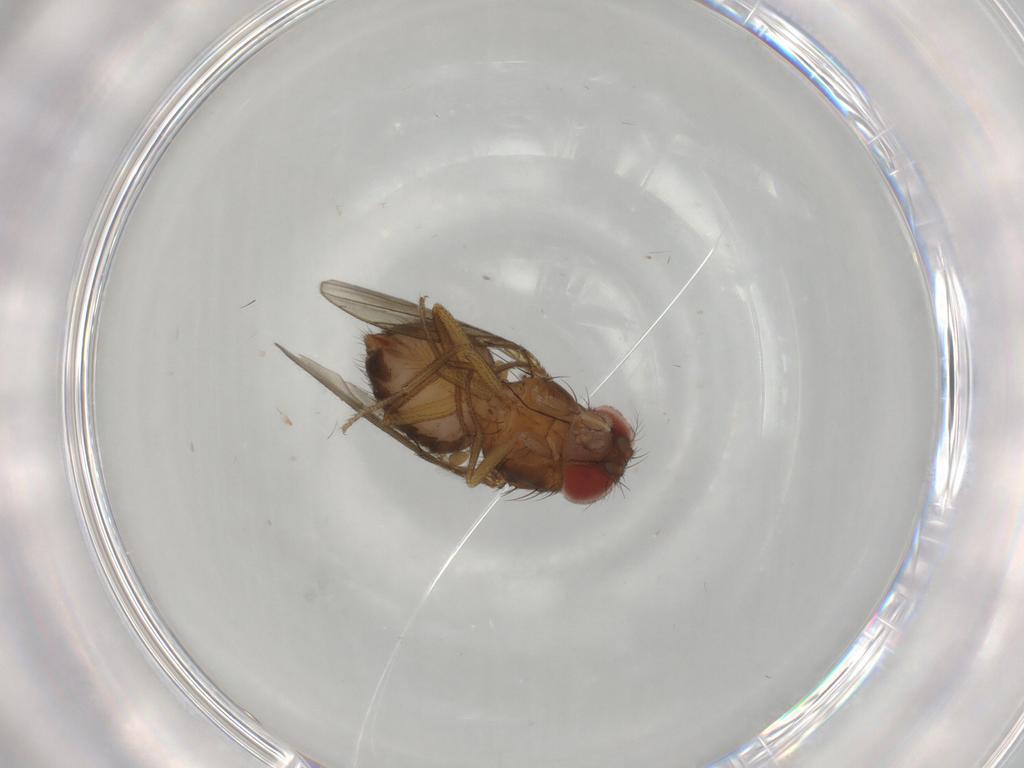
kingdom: Animalia
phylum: Arthropoda
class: Insecta
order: Diptera
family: Drosophilidae
